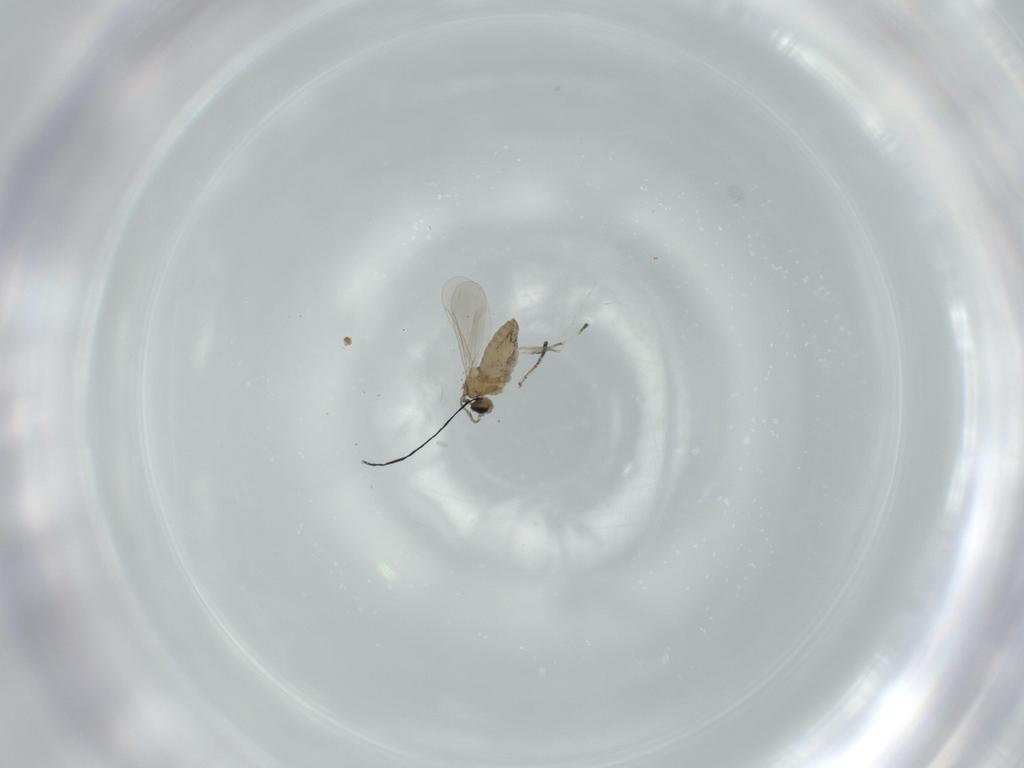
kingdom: Animalia
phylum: Arthropoda
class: Insecta
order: Diptera
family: Cecidomyiidae
